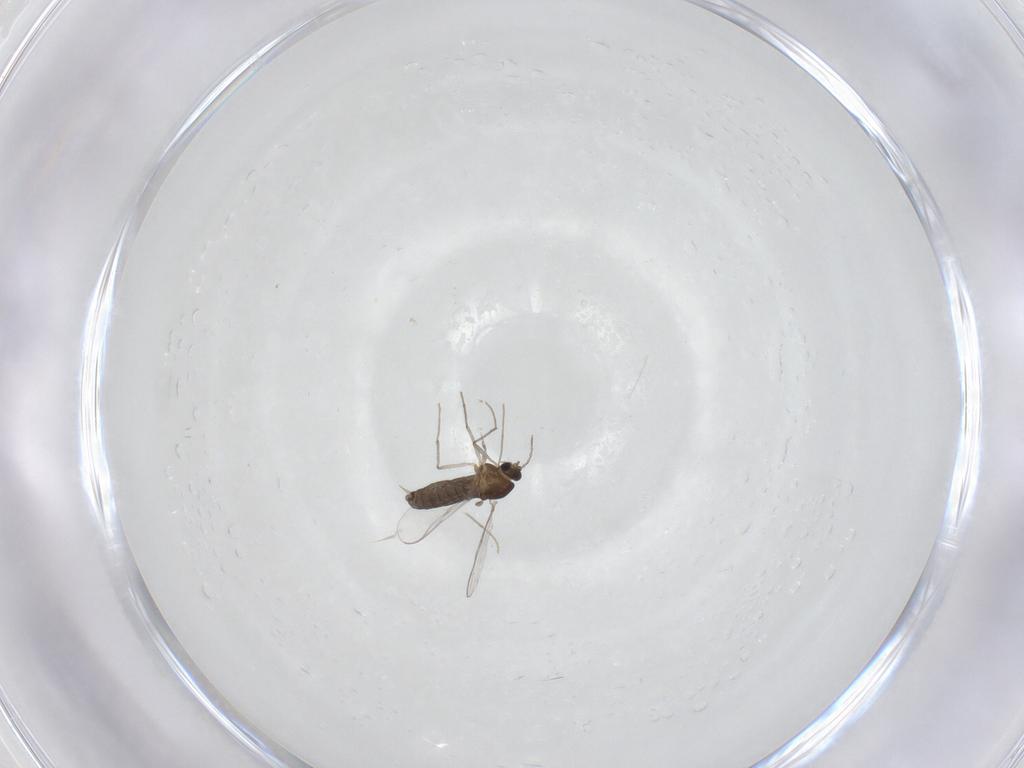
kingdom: Animalia
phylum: Arthropoda
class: Insecta
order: Diptera
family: Chironomidae
